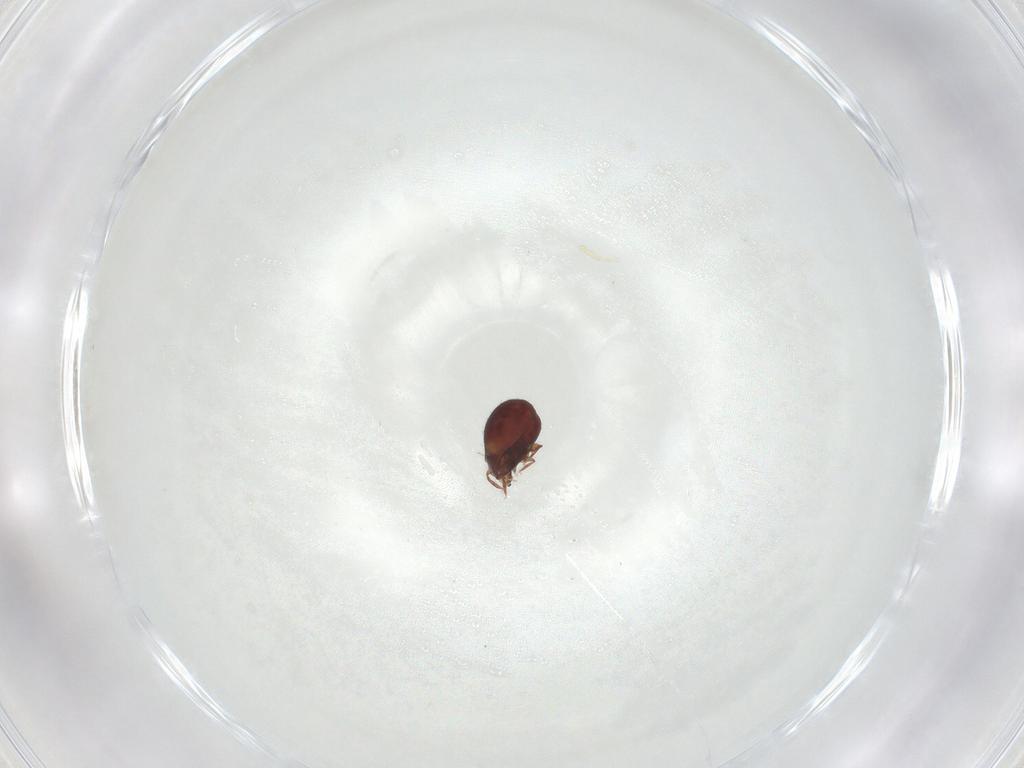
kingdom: Animalia
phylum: Arthropoda
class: Arachnida
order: Sarcoptiformes
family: Humerobatidae
